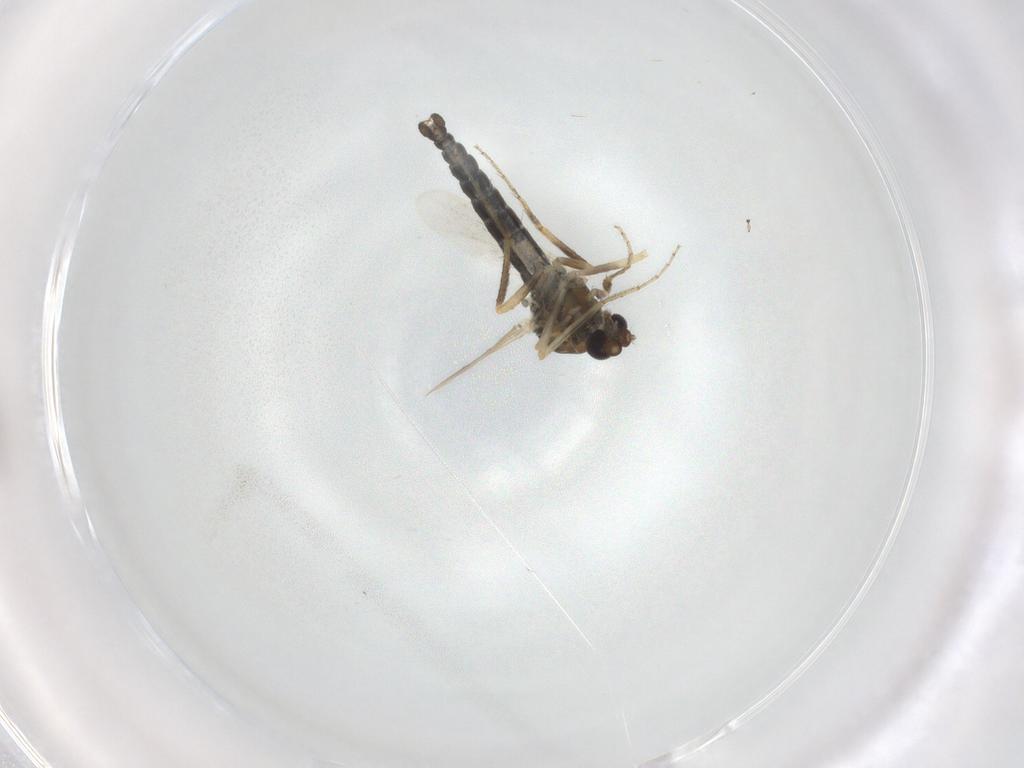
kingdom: Animalia
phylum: Arthropoda
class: Insecta
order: Diptera
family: Ceratopogonidae
